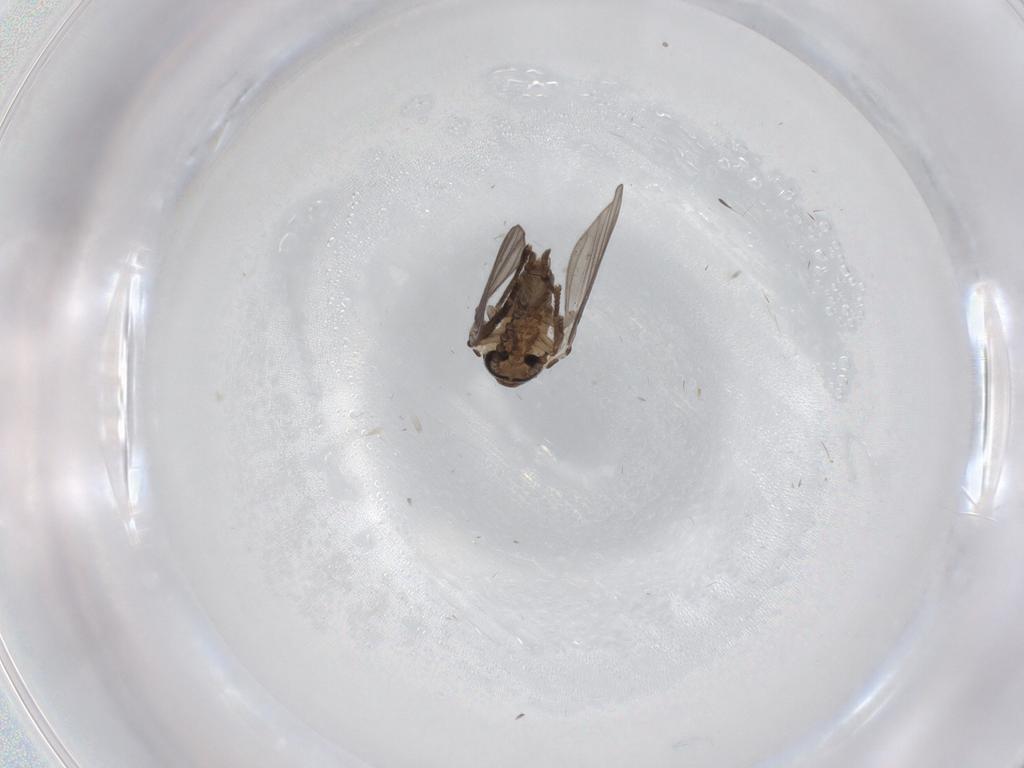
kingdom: Animalia
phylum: Arthropoda
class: Insecta
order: Diptera
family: Psychodidae
